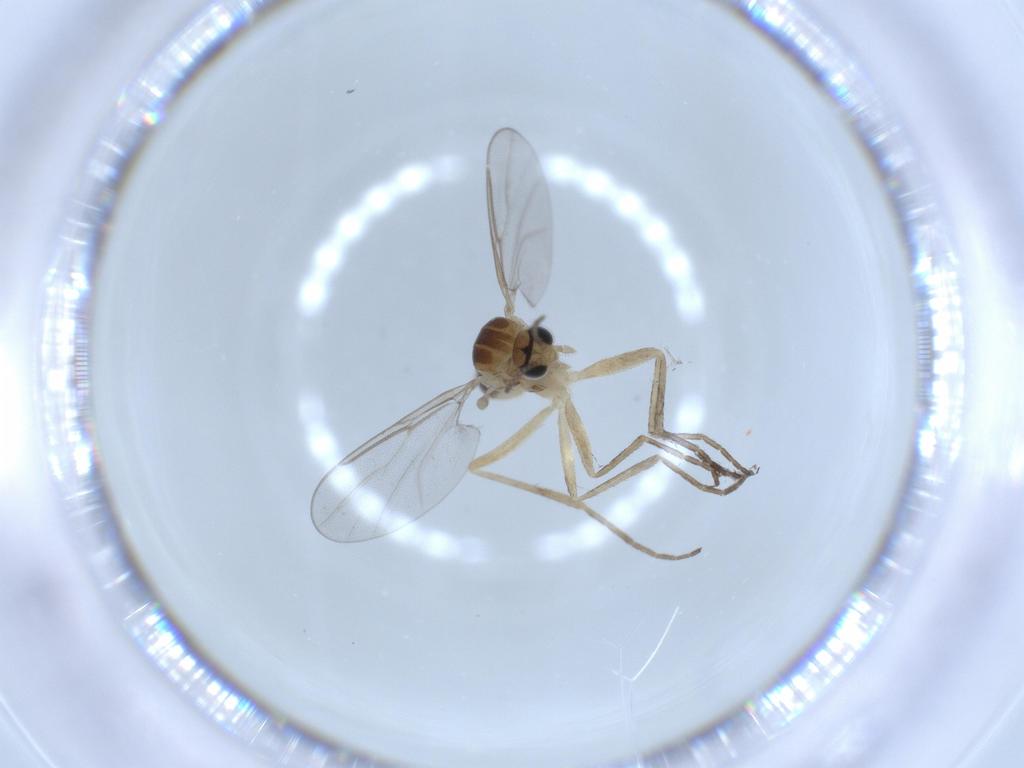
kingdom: Animalia
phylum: Arthropoda
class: Insecta
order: Diptera
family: Cecidomyiidae
